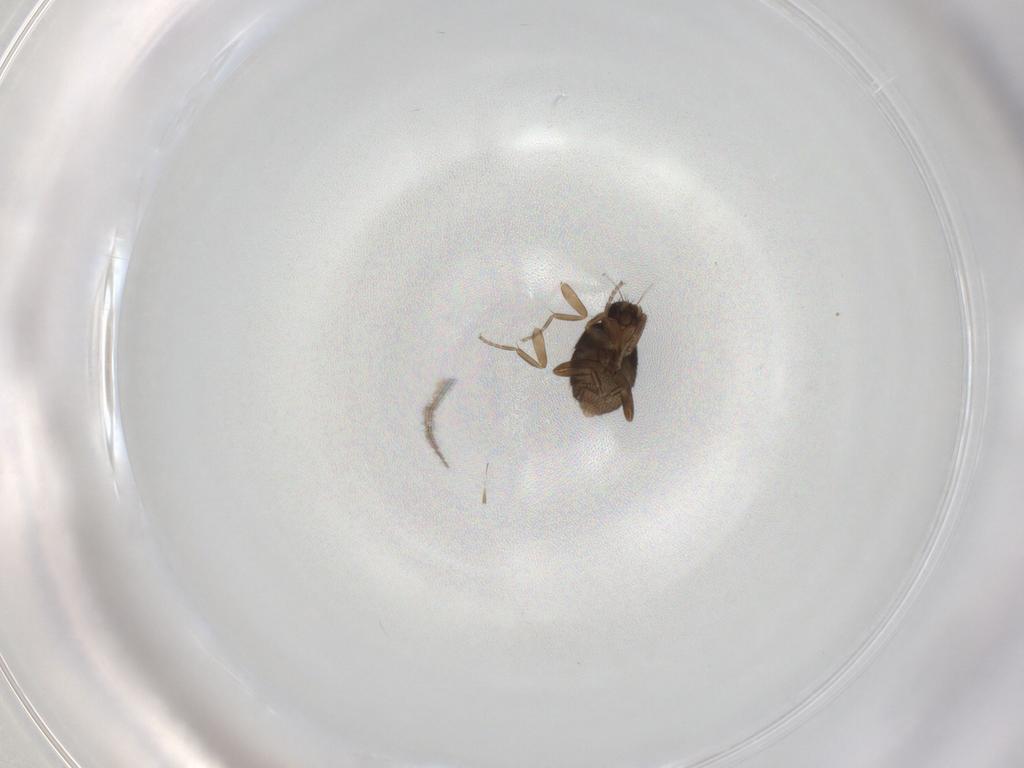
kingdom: Animalia
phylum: Arthropoda
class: Insecta
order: Diptera
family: Phoridae
